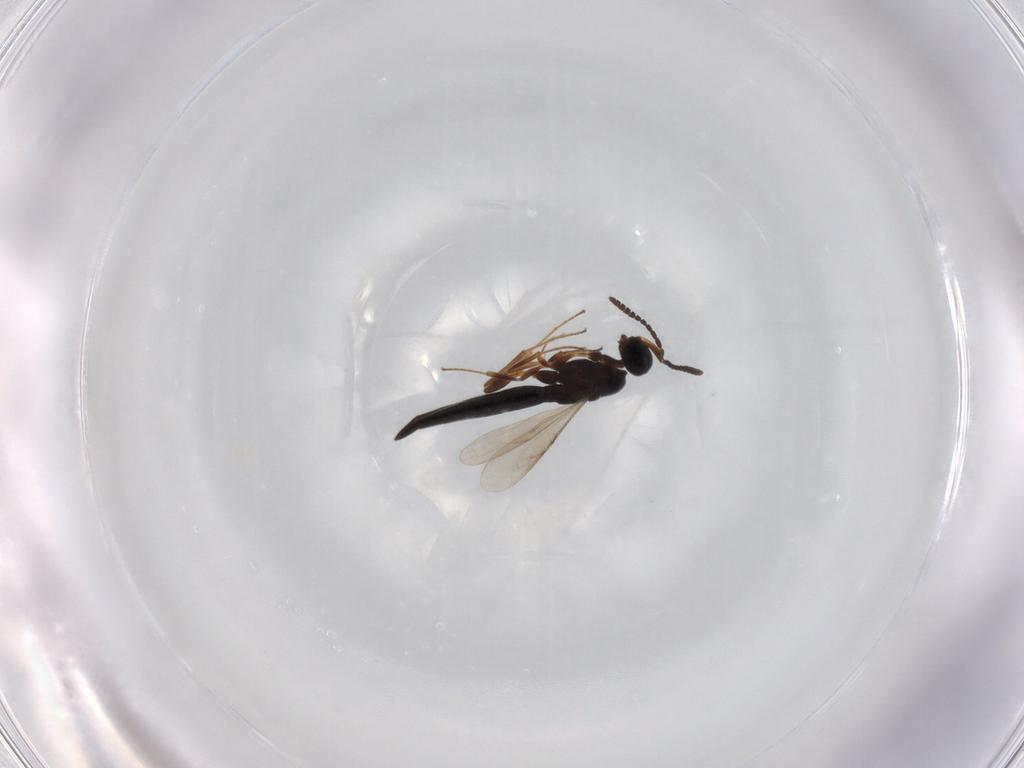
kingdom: Animalia
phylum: Arthropoda
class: Insecta
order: Hymenoptera
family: Scelionidae
